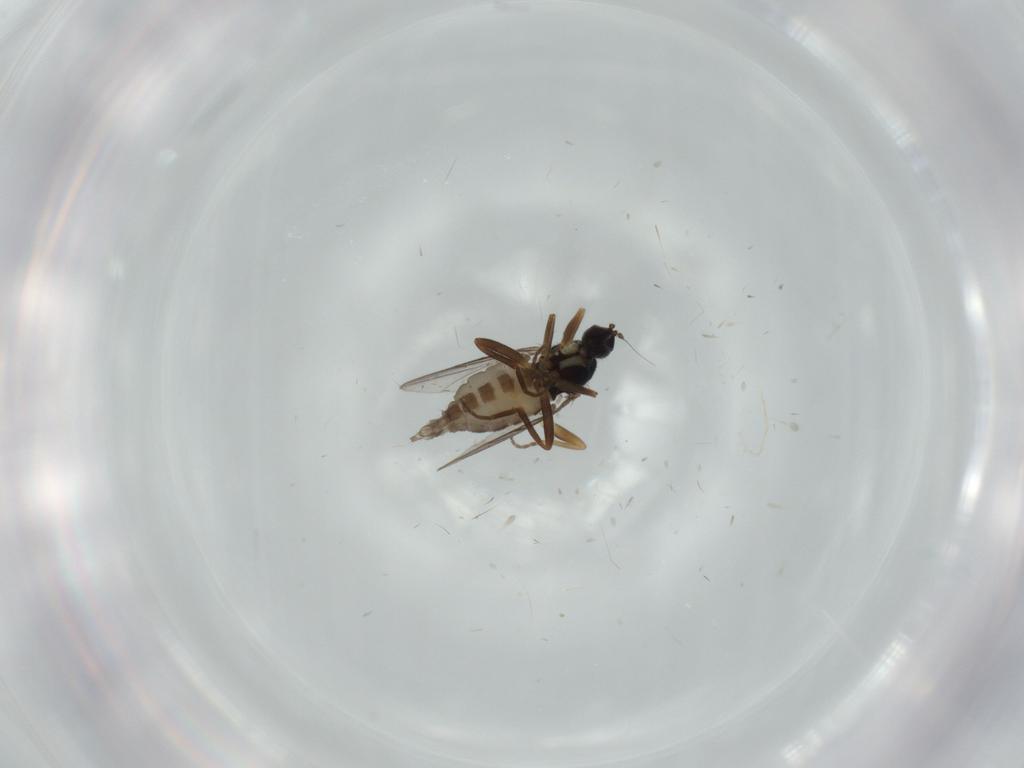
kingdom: Animalia
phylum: Arthropoda
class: Insecta
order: Diptera
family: Hybotidae
